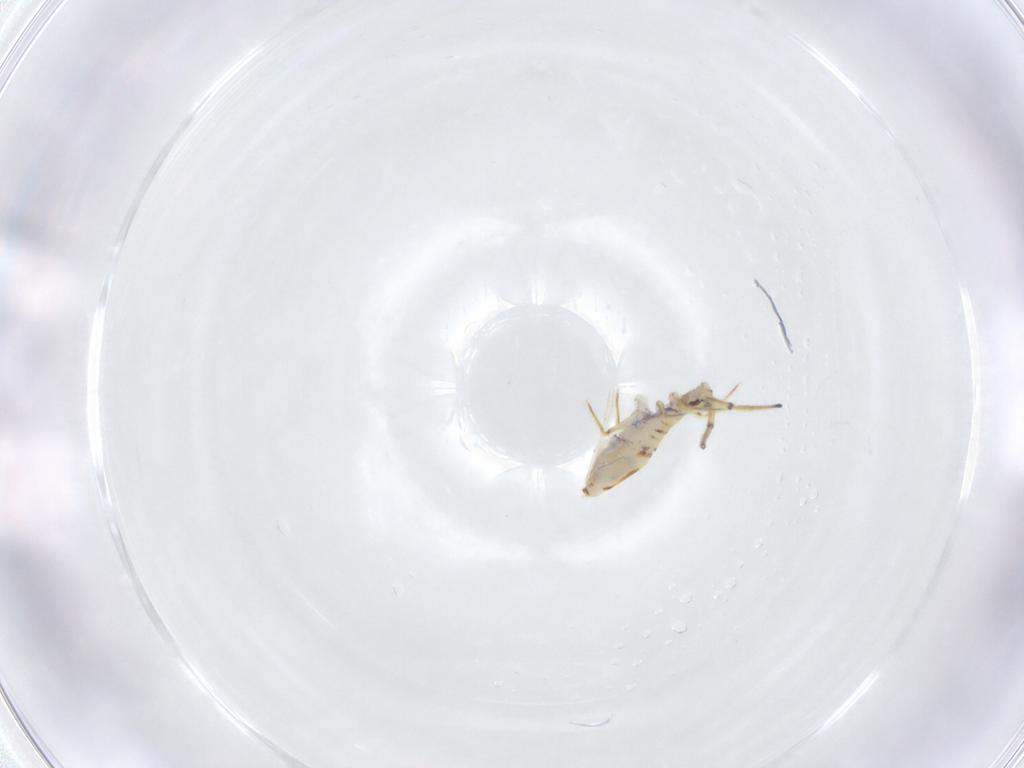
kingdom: Animalia
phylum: Arthropoda
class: Collembola
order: Entomobryomorpha
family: Paronellidae
